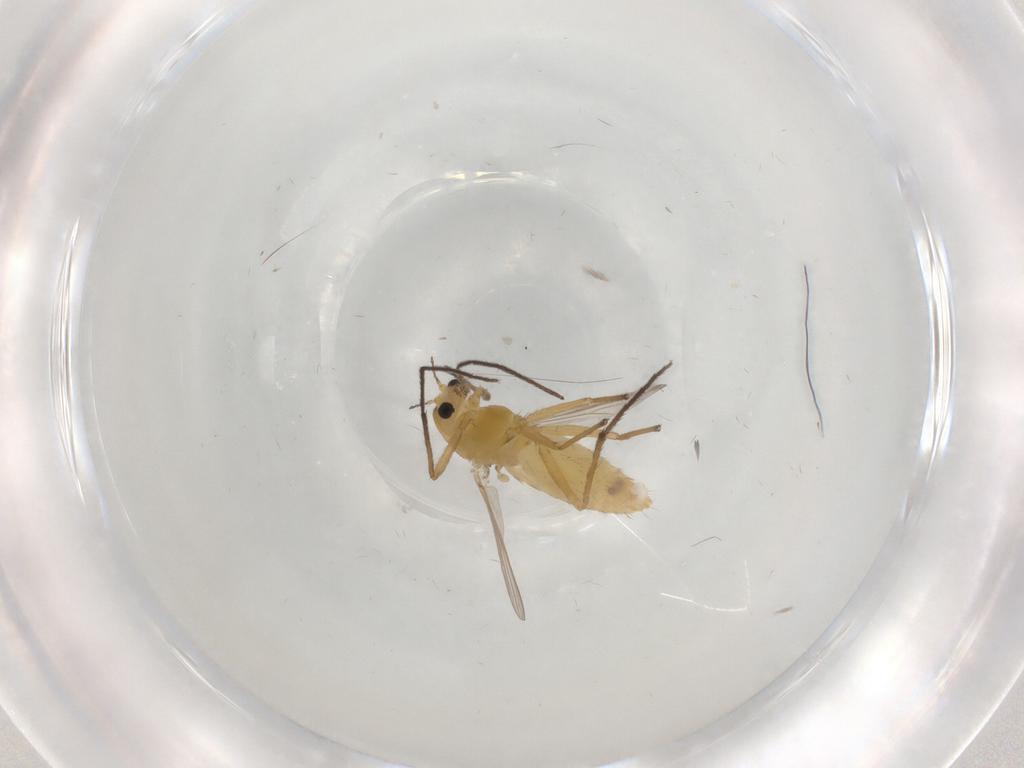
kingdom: Animalia
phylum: Arthropoda
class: Insecta
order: Diptera
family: Chironomidae
